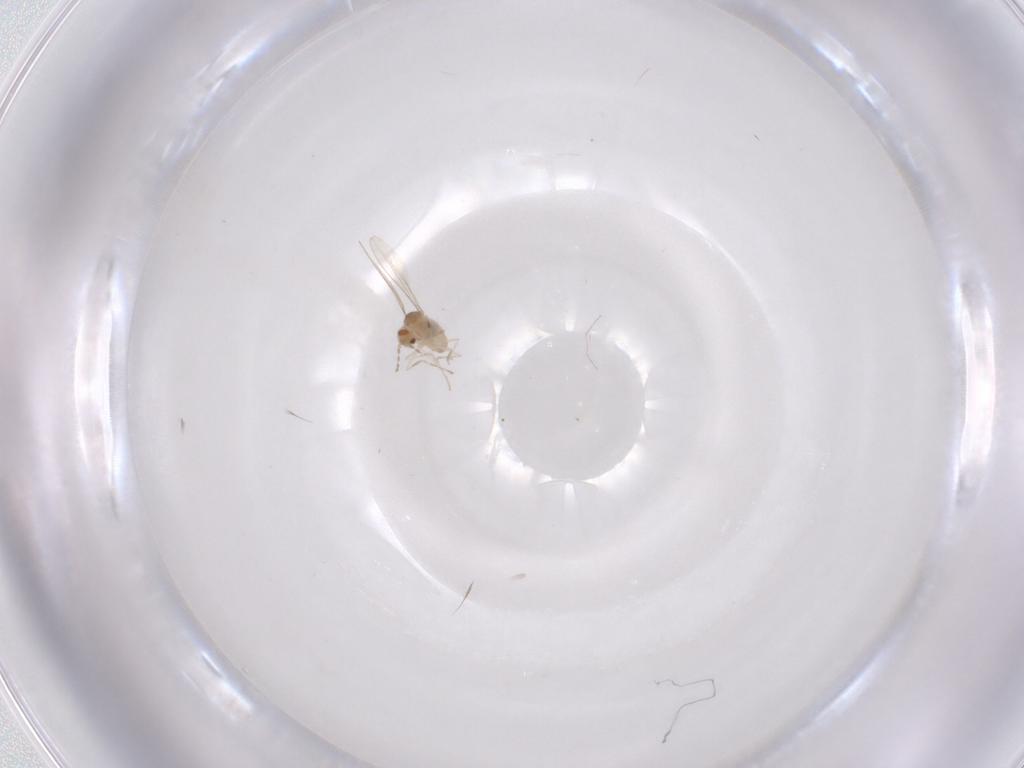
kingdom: Animalia
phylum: Arthropoda
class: Insecta
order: Diptera
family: Cecidomyiidae
